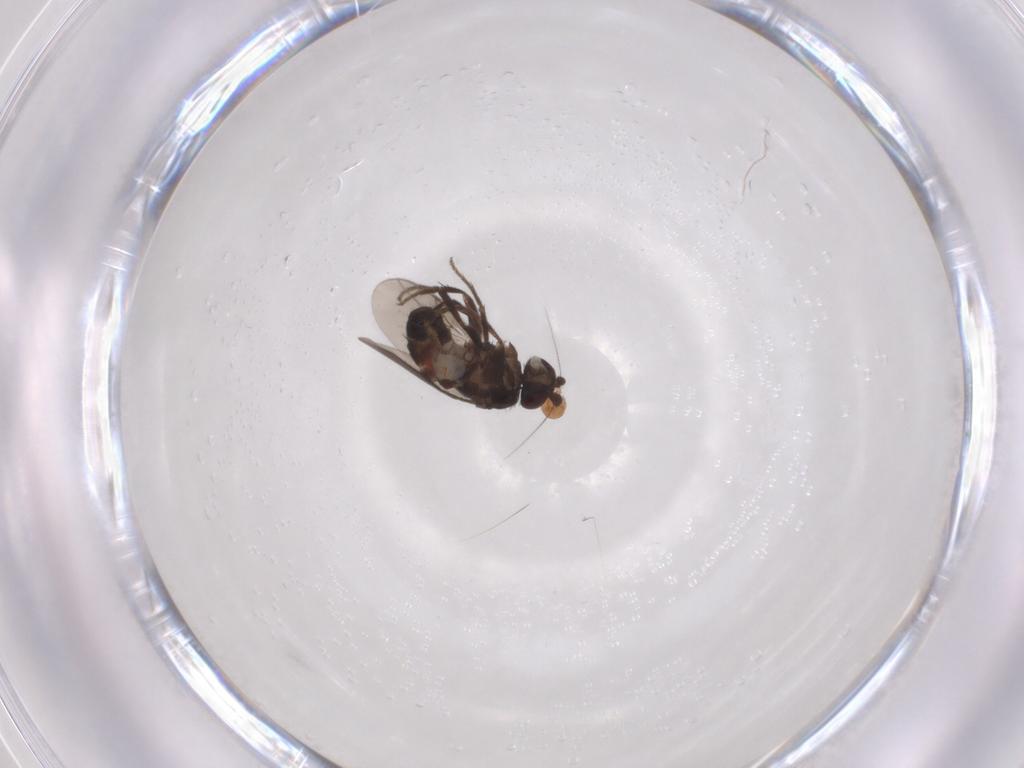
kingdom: Animalia
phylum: Arthropoda
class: Insecta
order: Diptera
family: Sphaeroceridae
